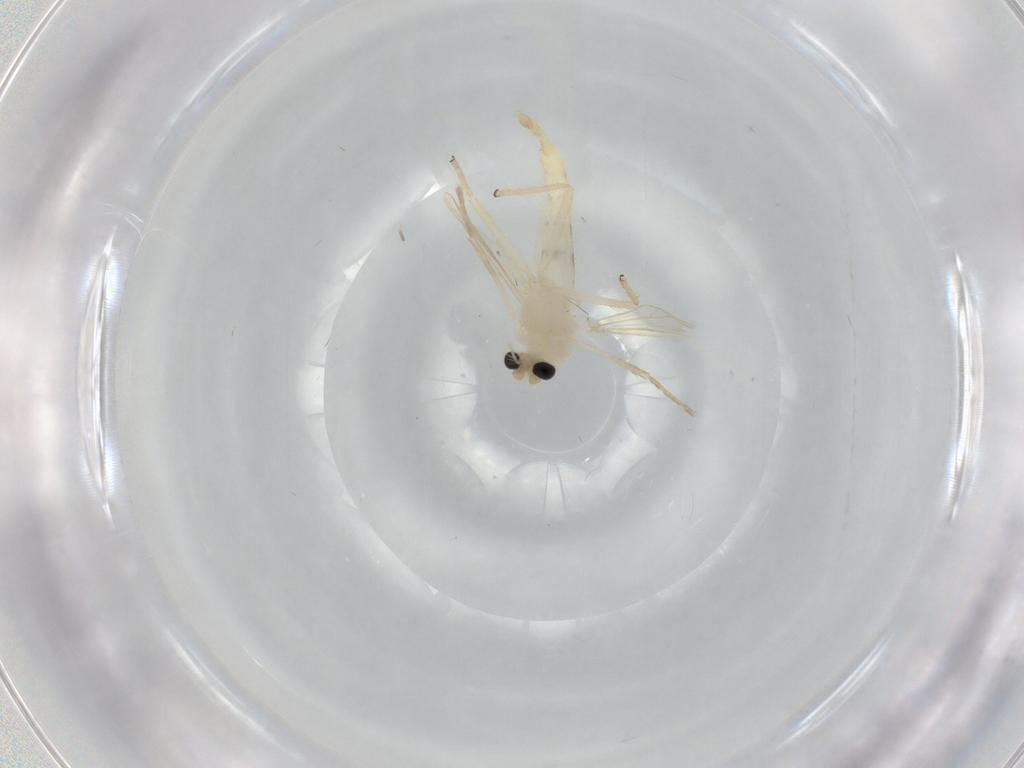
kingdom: Animalia
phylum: Arthropoda
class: Insecta
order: Diptera
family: Chironomidae
